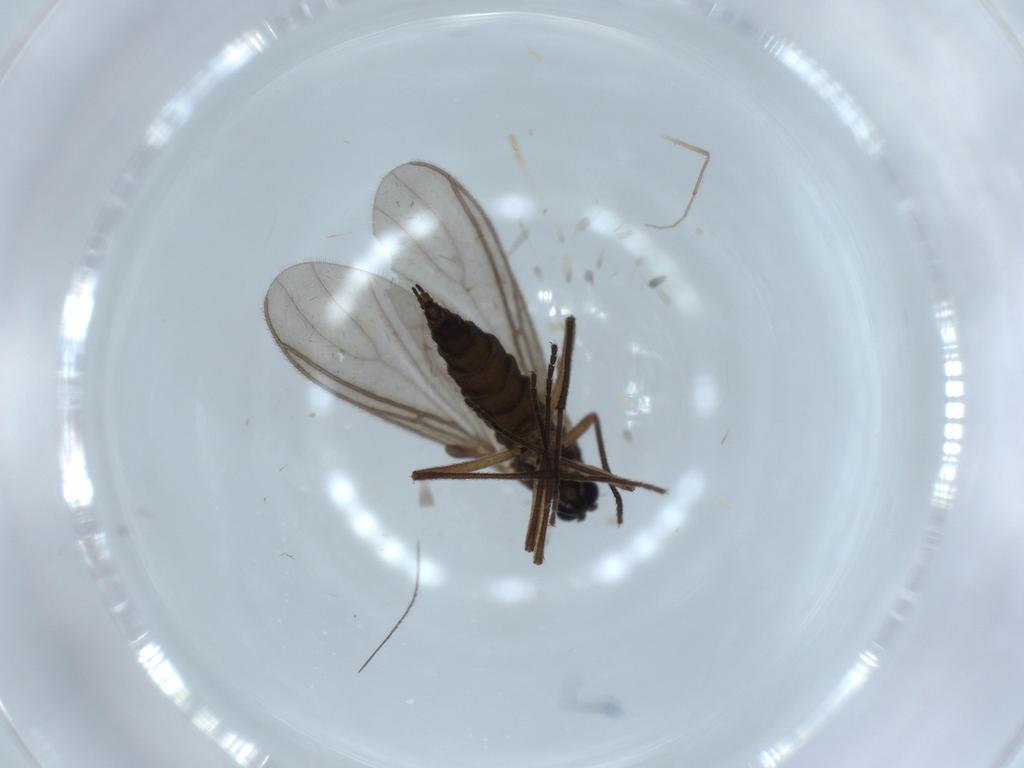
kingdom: Animalia
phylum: Arthropoda
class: Insecta
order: Diptera
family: Sciaridae
